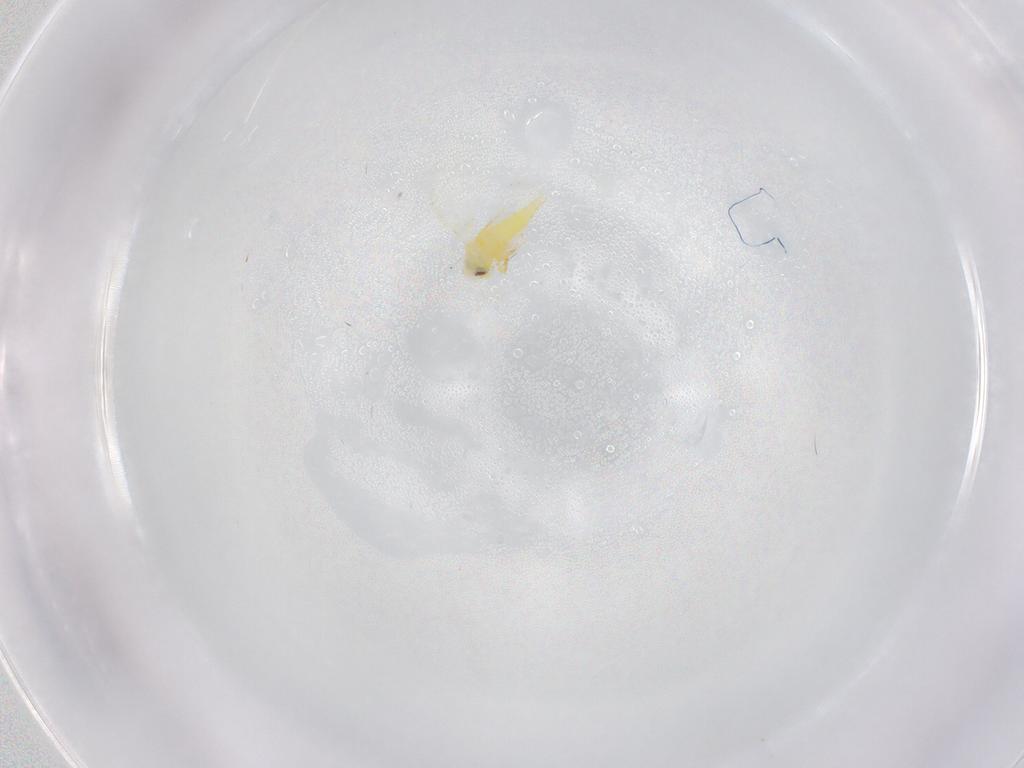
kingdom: Animalia
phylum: Arthropoda
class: Insecta
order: Hemiptera
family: Aleyrodidae
